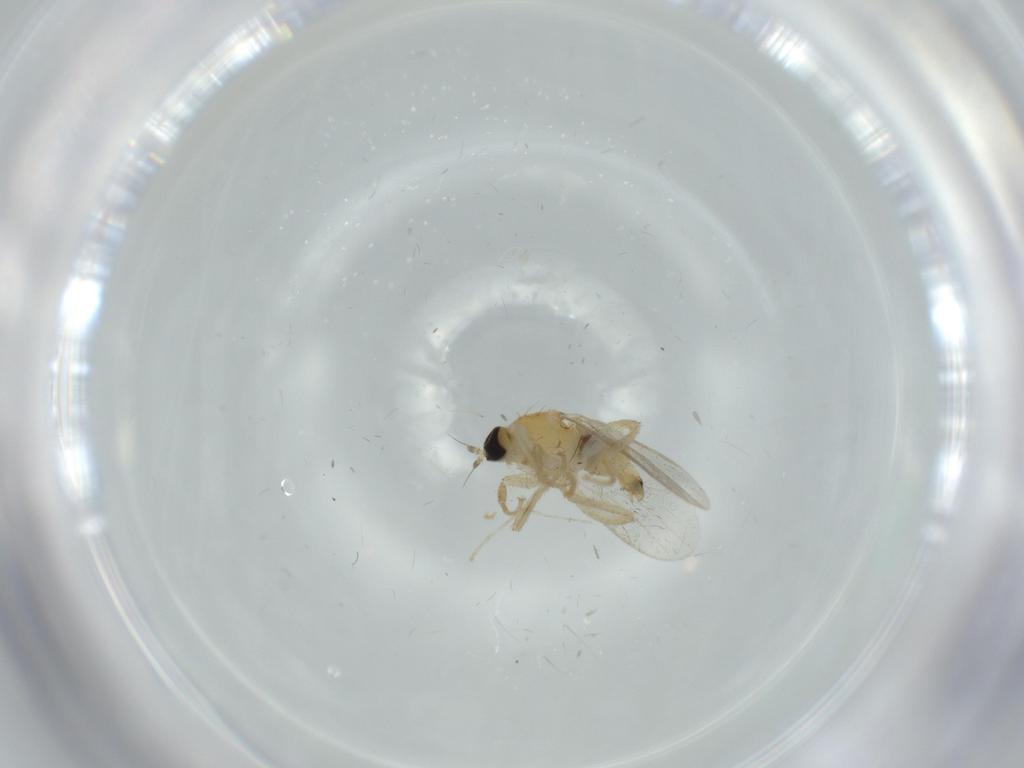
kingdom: Animalia
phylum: Arthropoda
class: Insecta
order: Diptera
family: Hybotidae
